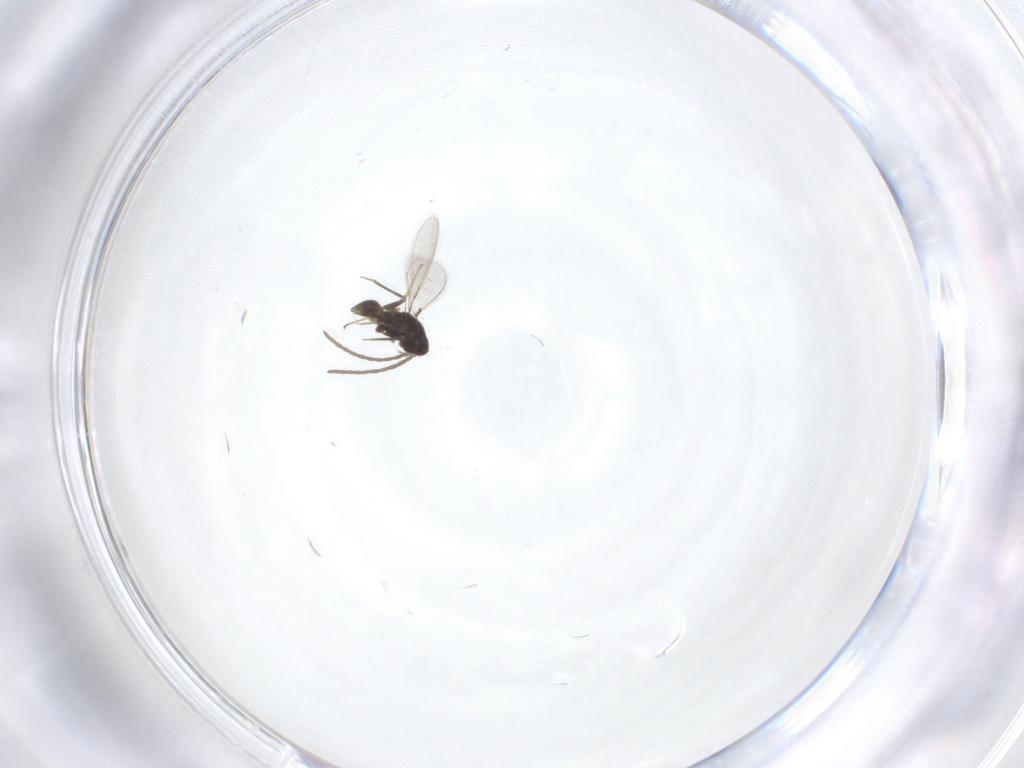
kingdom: Animalia
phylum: Arthropoda
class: Insecta
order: Hymenoptera
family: Mymaridae
